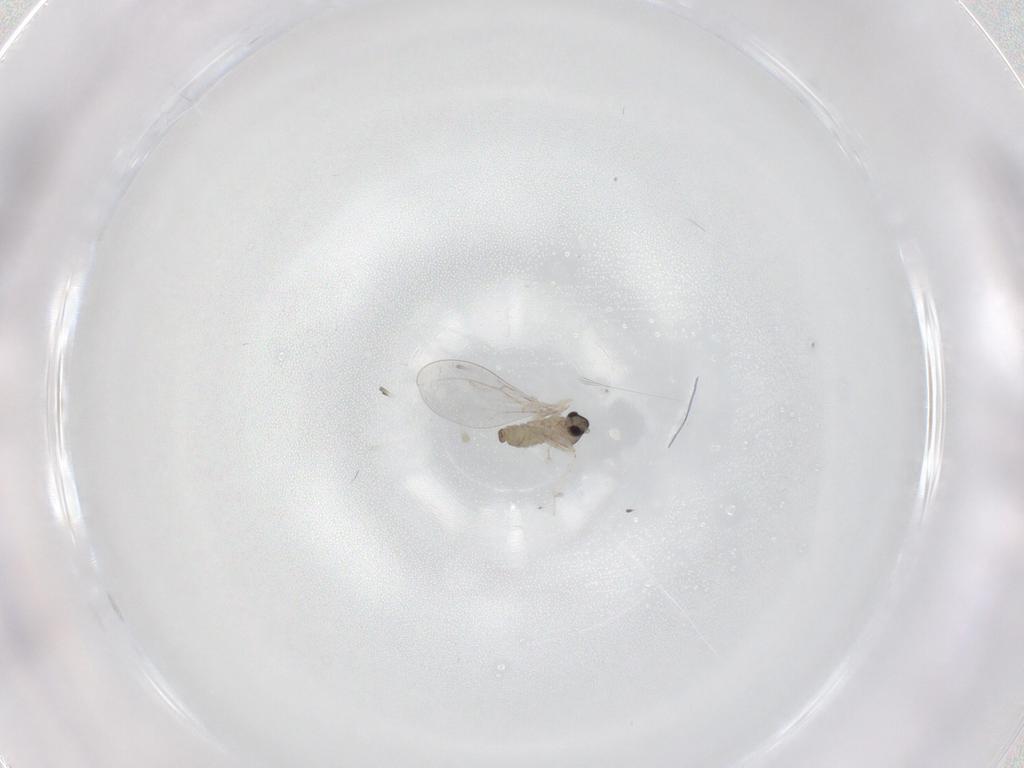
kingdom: Animalia
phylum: Arthropoda
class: Insecta
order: Diptera
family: Cecidomyiidae
